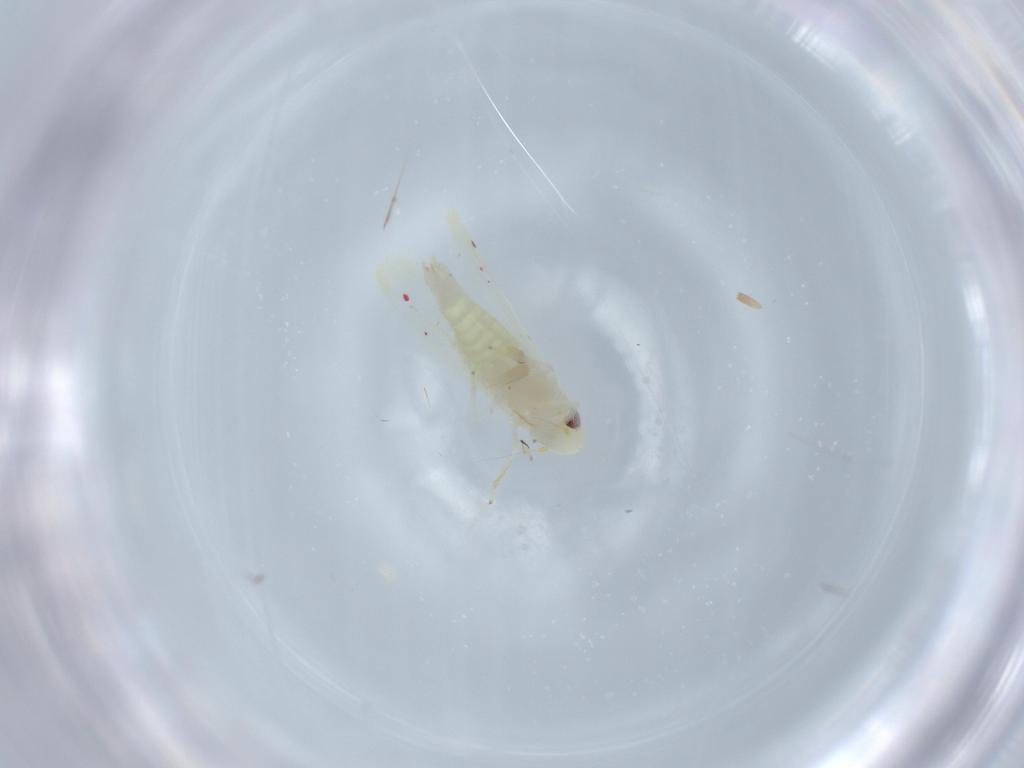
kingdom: Animalia
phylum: Arthropoda
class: Insecta
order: Hemiptera
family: Cicadellidae
